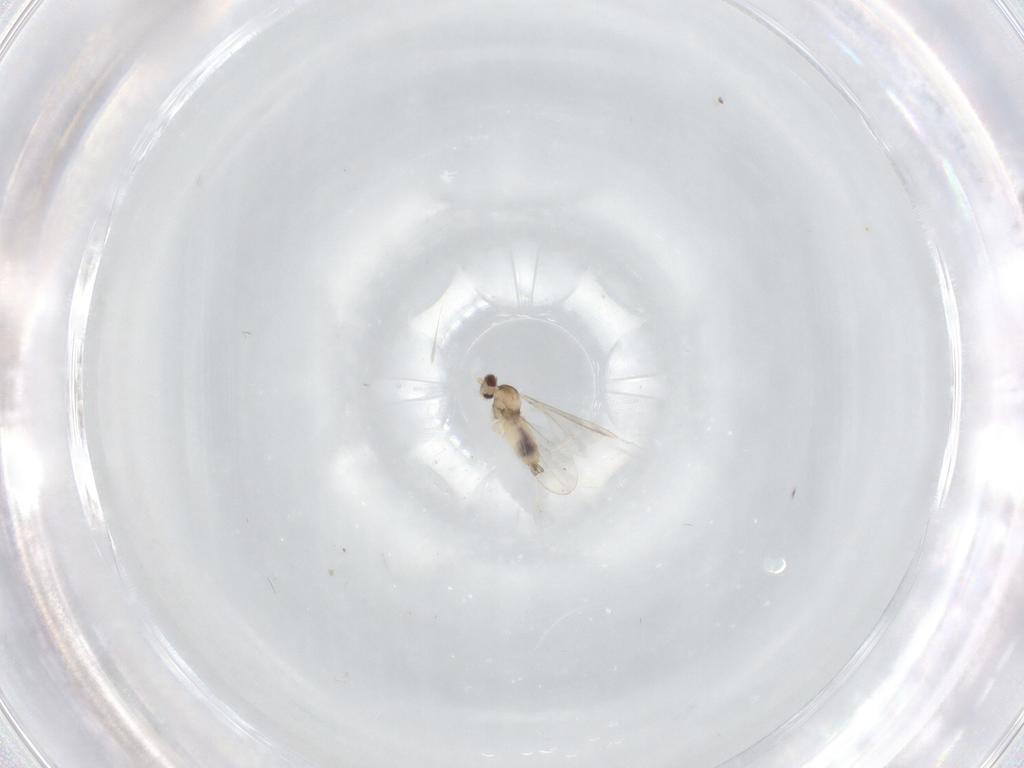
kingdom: Animalia
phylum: Arthropoda
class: Insecta
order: Diptera
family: Cecidomyiidae
